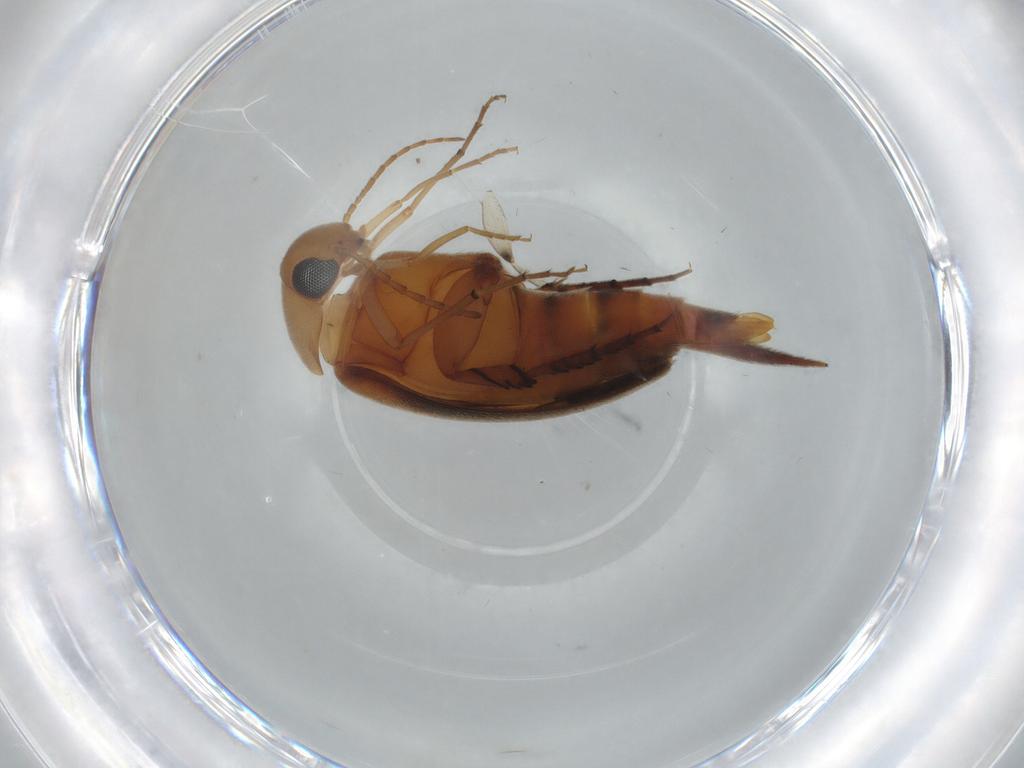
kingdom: Animalia
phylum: Arthropoda
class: Insecta
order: Coleoptera
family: Mordellidae
